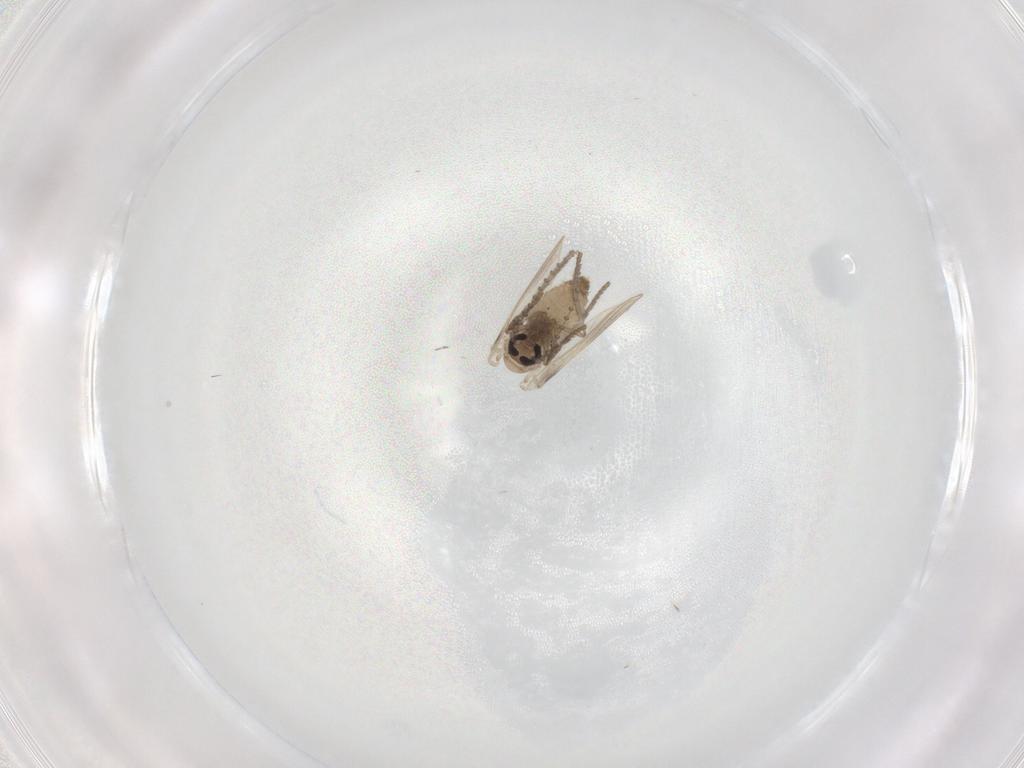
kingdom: Animalia
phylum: Arthropoda
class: Insecta
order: Diptera
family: Psychodidae
